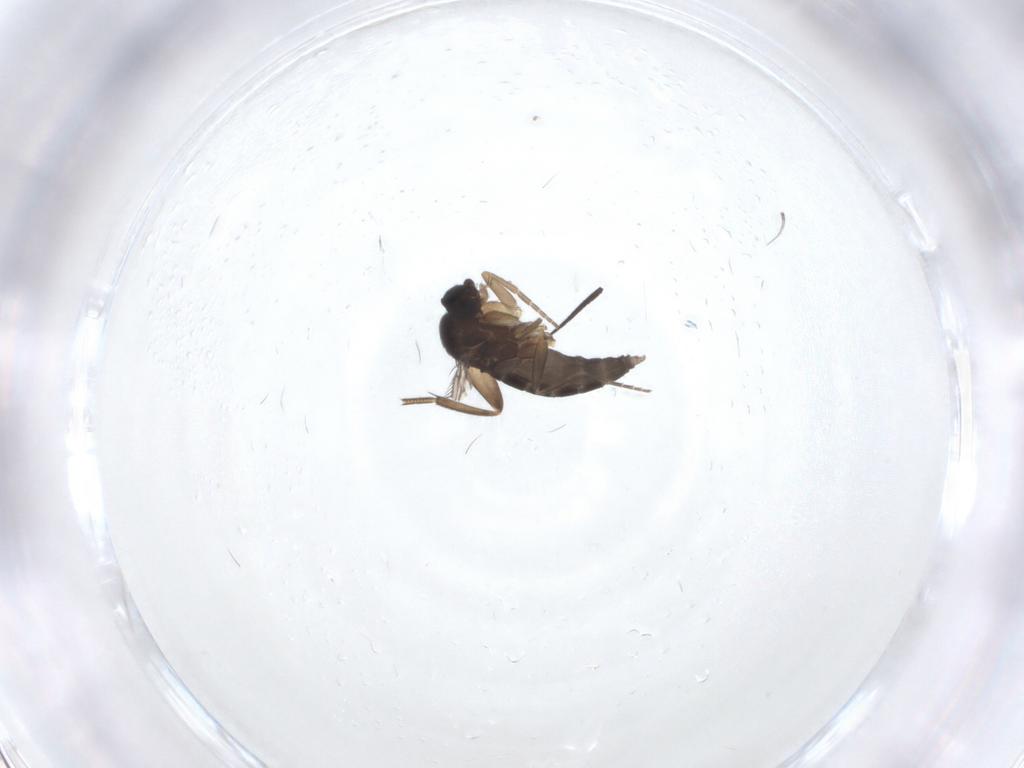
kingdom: Animalia
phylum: Arthropoda
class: Insecta
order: Diptera
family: Phoridae
